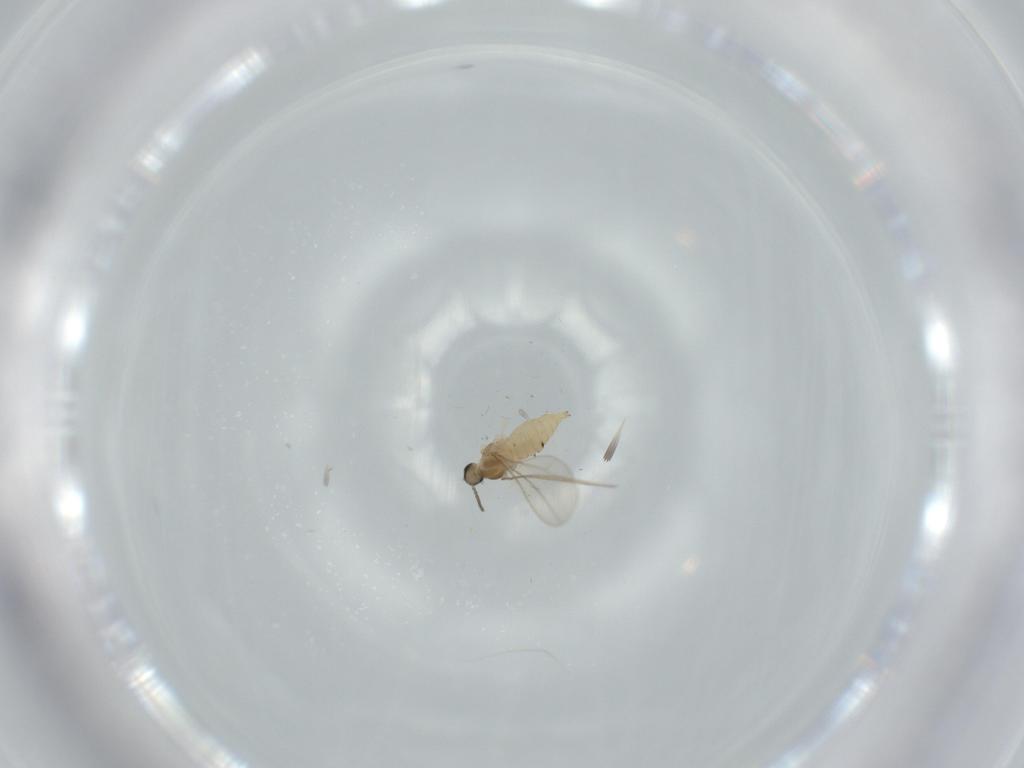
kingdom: Animalia
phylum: Arthropoda
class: Insecta
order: Diptera
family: Cecidomyiidae
